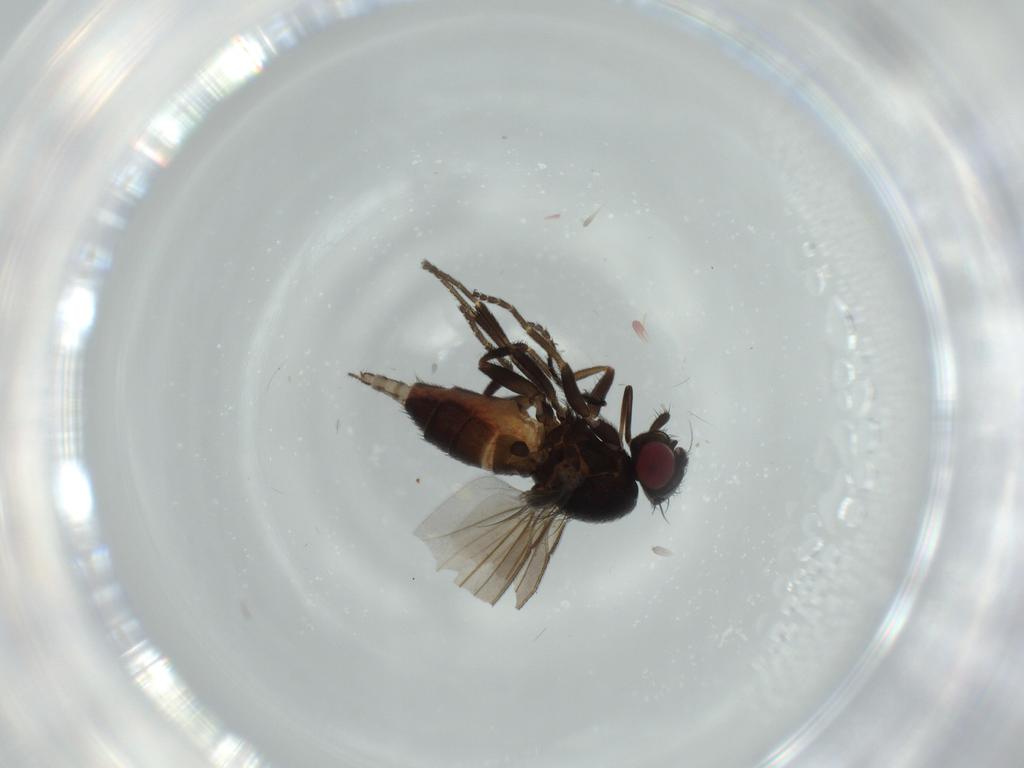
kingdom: Animalia
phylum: Arthropoda
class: Insecta
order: Diptera
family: Milichiidae
